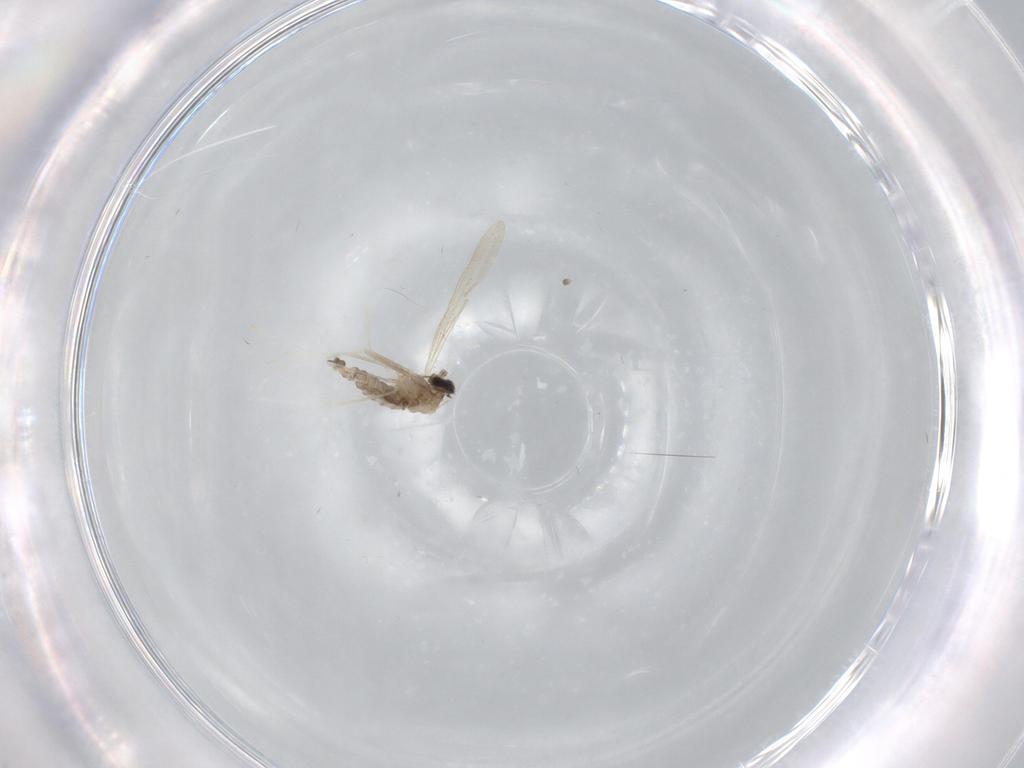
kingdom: Animalia
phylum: Arthropoda
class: Insecta
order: Diptera
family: Cecidomyiidae
